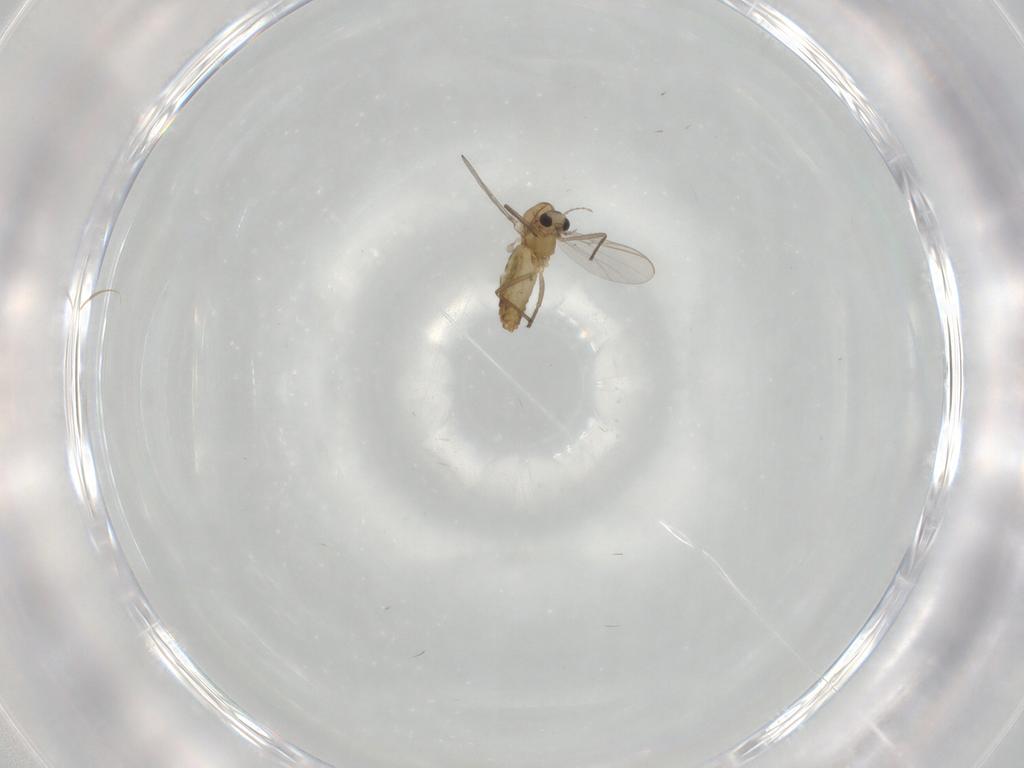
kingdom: Animalia
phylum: Arthropoda
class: Insecta
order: Diptera
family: Chironomidae
